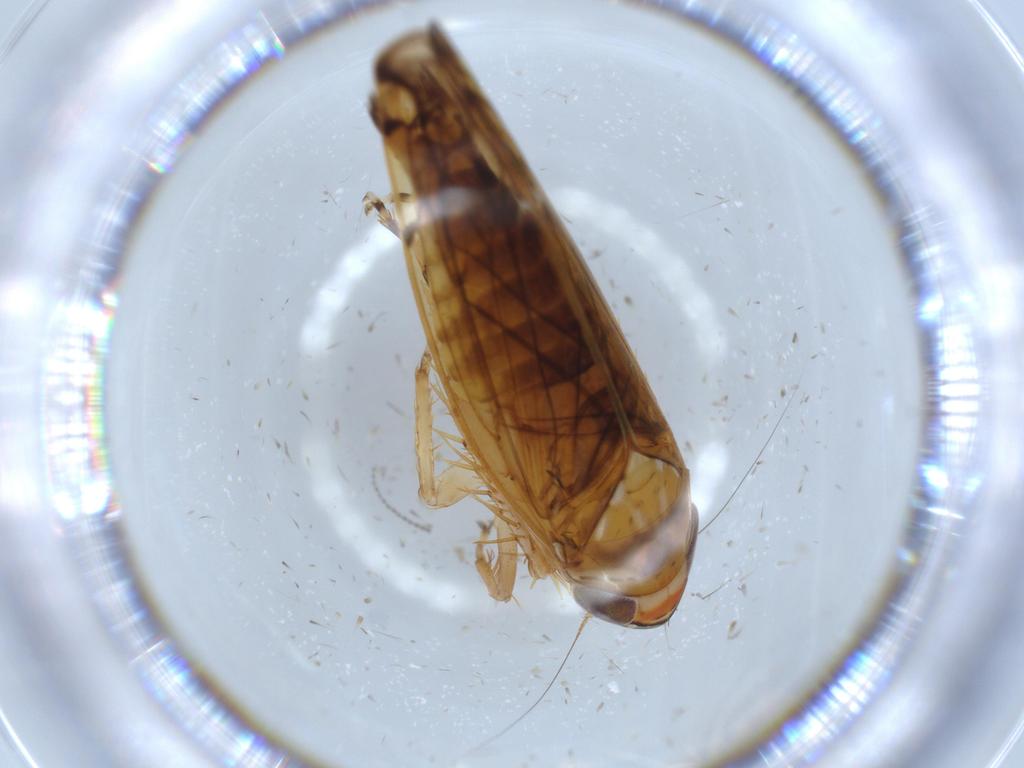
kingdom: Animalia
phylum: Arthropoda
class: Insecta
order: Hemiptera
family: Cicadellidae
